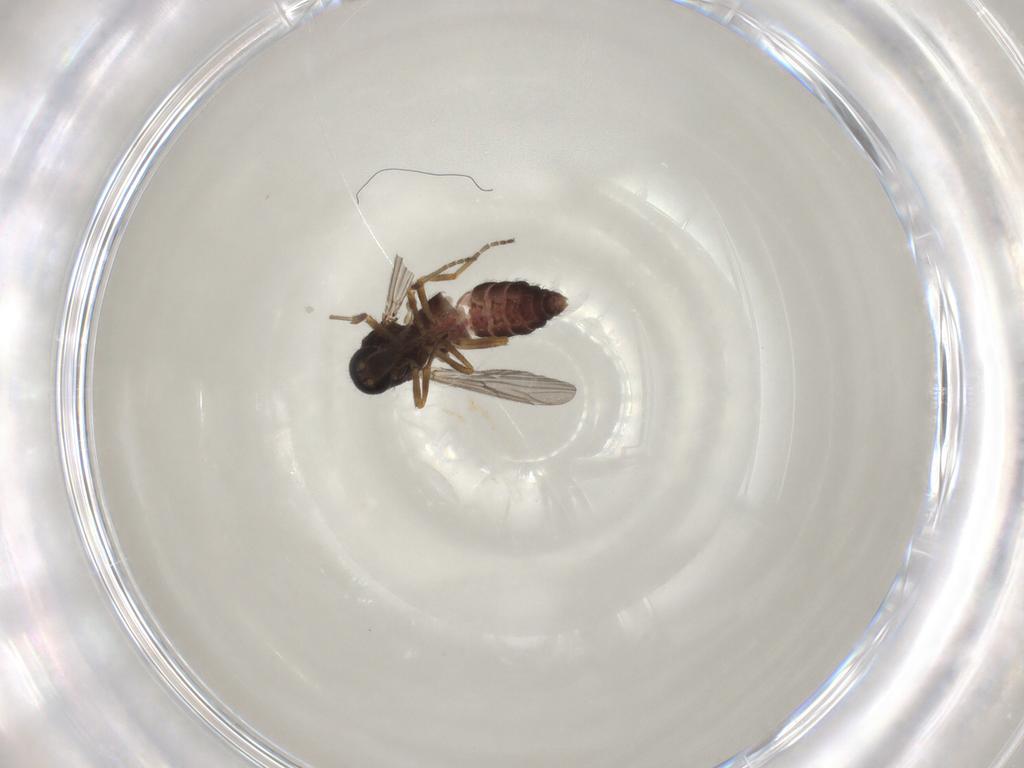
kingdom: Animalia
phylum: Arthropoda
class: Insecta
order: Diptera
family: Ceratopogonidae
